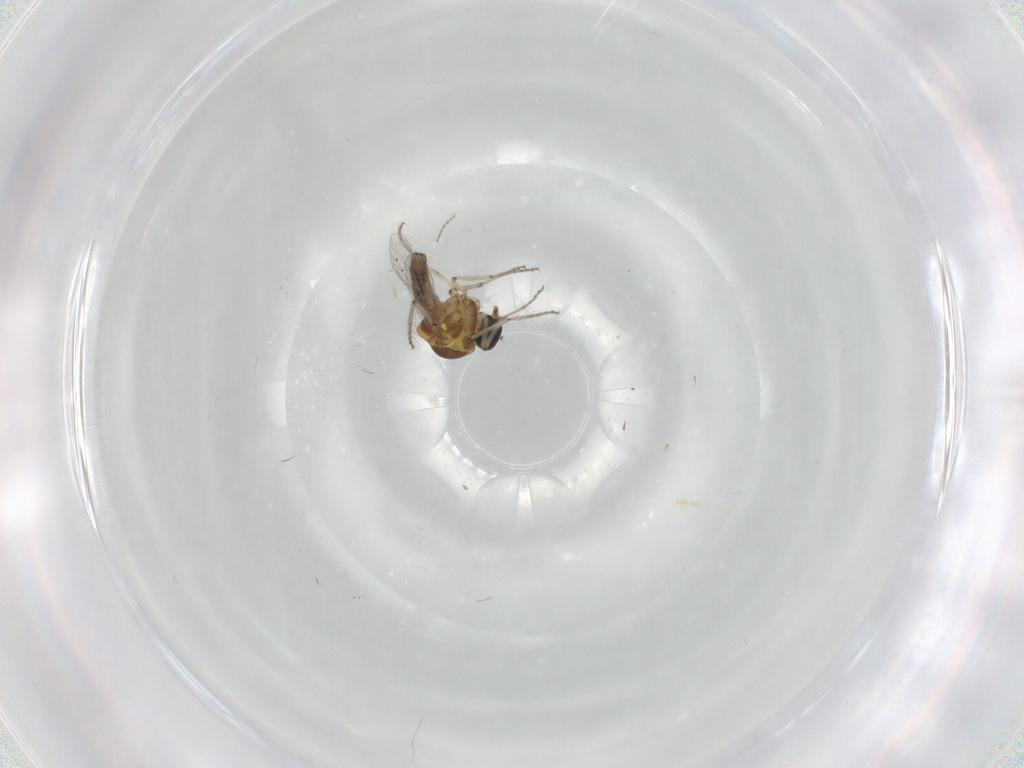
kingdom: Animalia
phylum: Arthropoda
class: Insecta
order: Diptera
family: Ceratopogonidae
